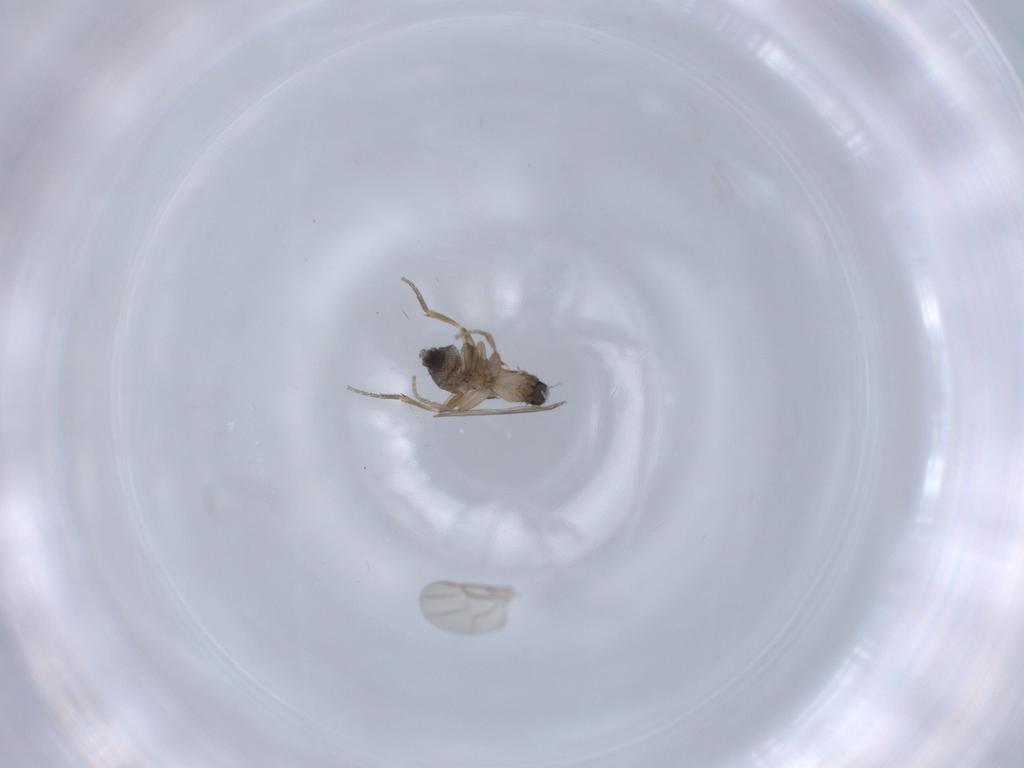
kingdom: Animalia
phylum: Arthropoda
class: Insecta
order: Diptera
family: Phoridae
